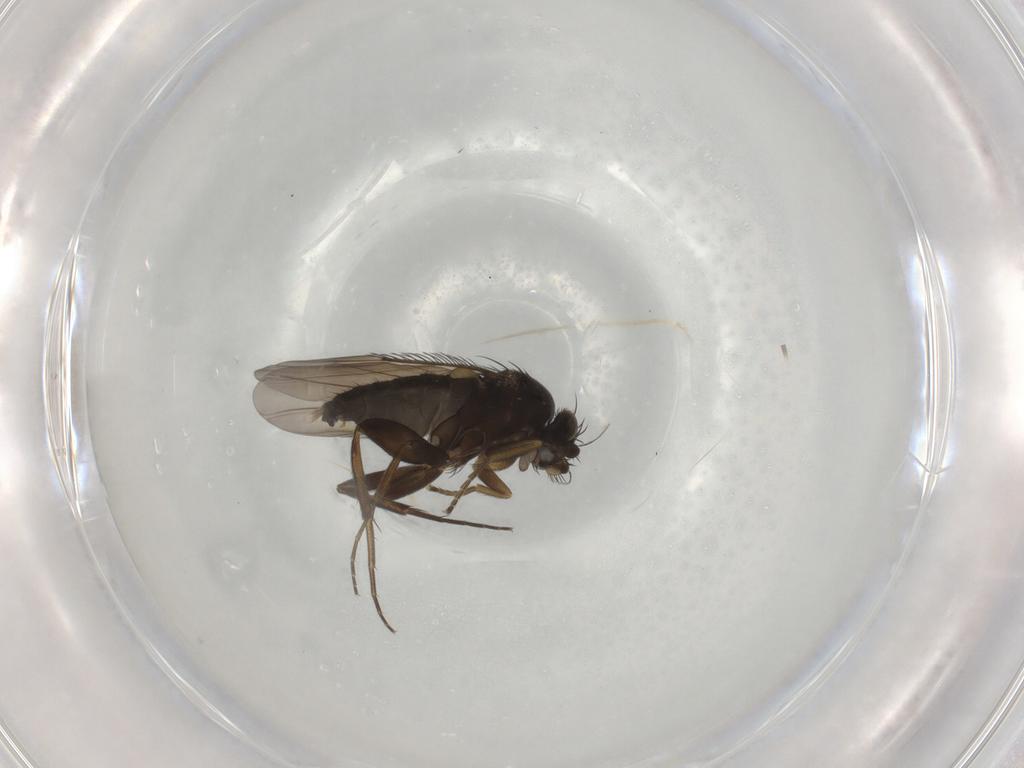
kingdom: Animalia
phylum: Arthropoda
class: Insecta
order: Diptera
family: Phoridae
